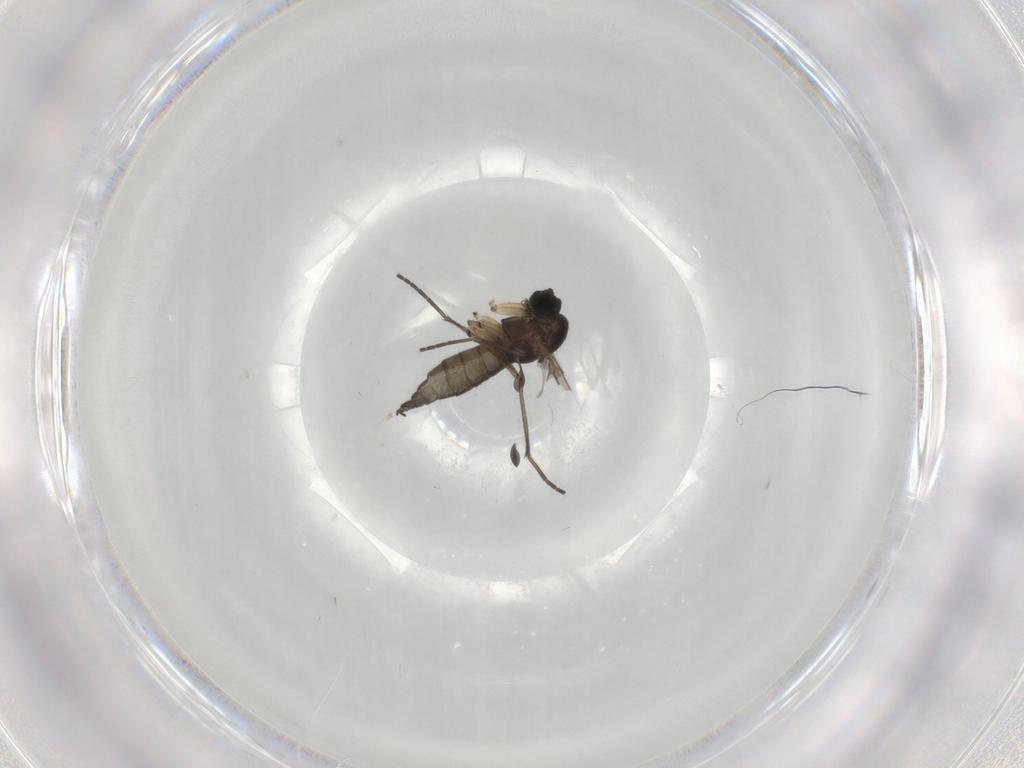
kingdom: Animalia
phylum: Arthropoda
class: Insecta
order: Diptera
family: Sciaridae
